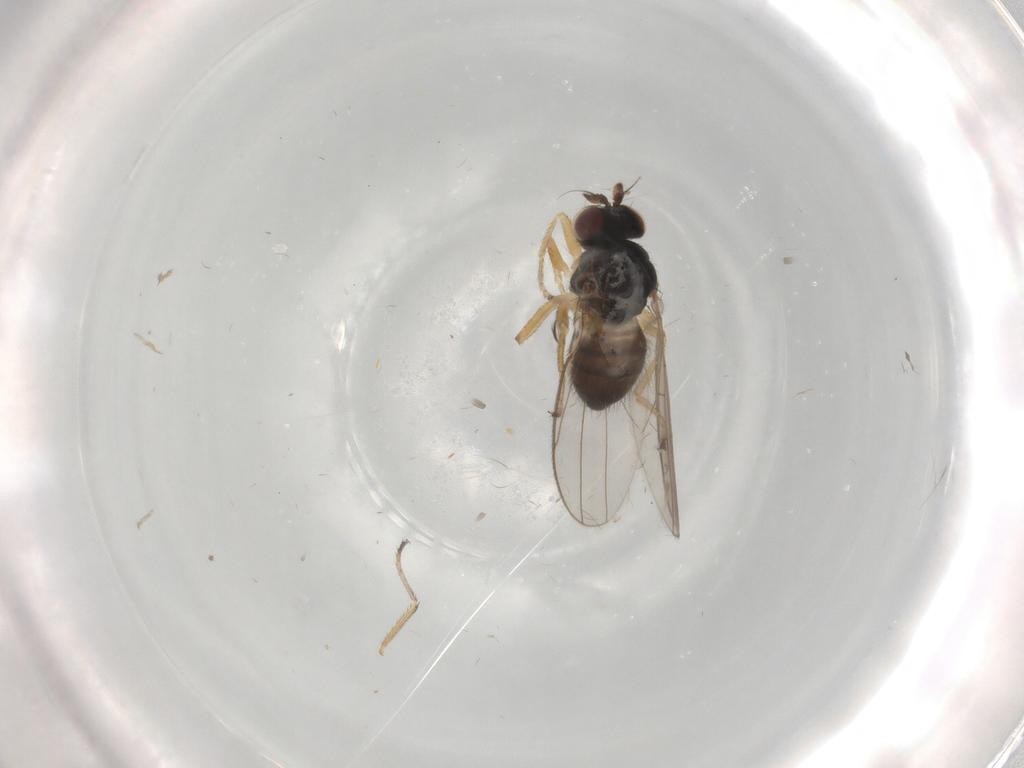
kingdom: Animalia
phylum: Arthropoda
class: Insecta
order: Diptera
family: Ephydridae
